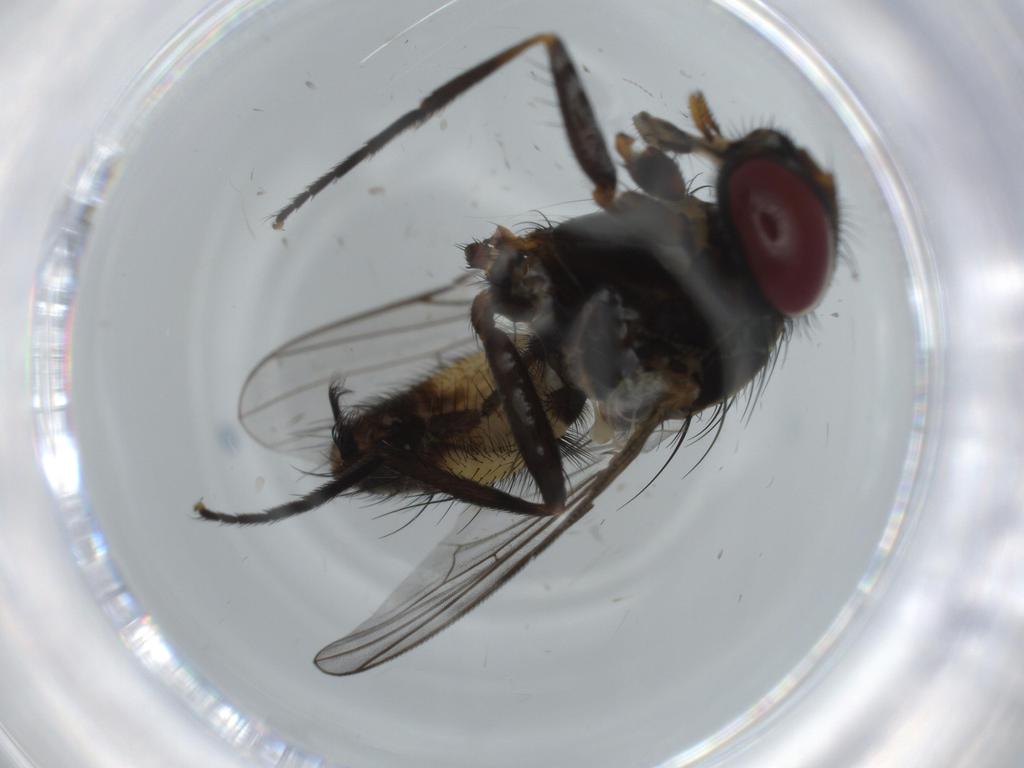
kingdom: Animalia
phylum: Arthropoda
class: Insecta
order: Diptera
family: Fannia
